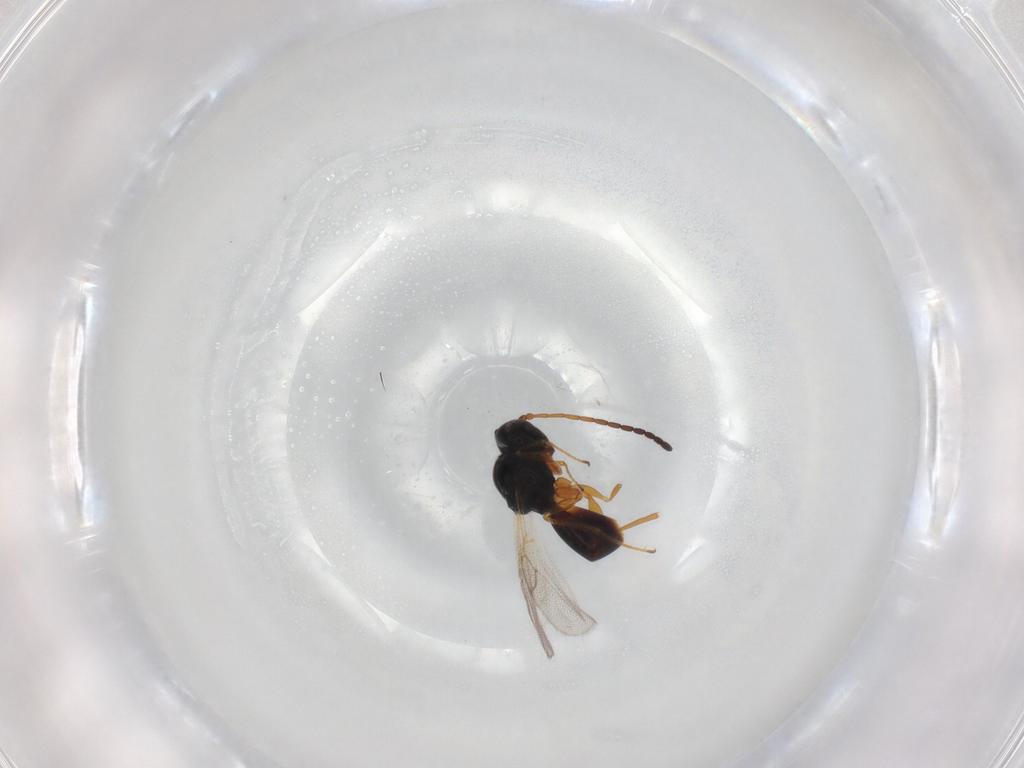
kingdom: Animalia
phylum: Arthropoda
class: Insecta
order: Hymenoptera
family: Figitidae
